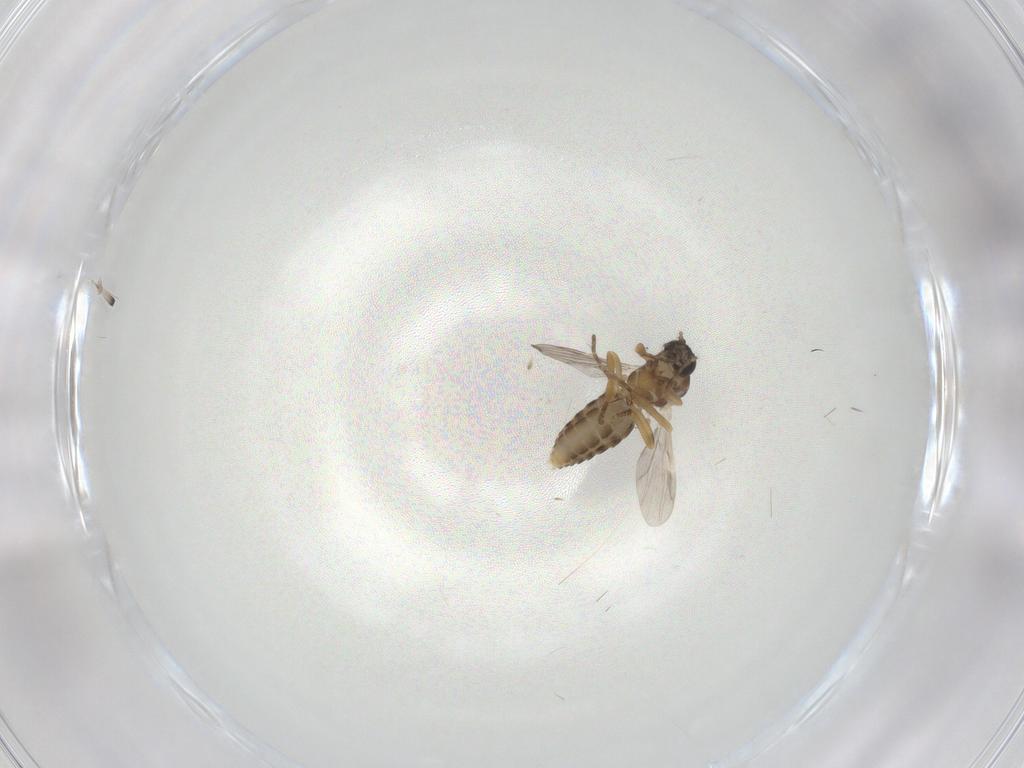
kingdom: Animalia
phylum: Arthropoda
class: Insecta
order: Diptera
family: Ceratopogonidae
